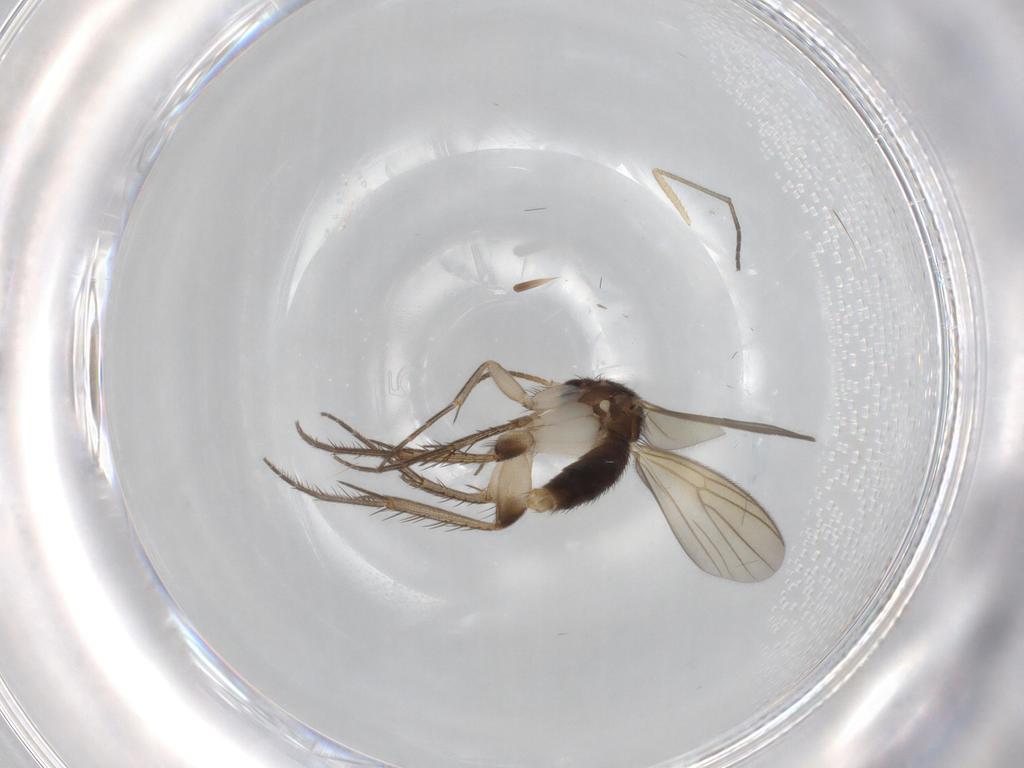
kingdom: Animalia
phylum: Arthropoda
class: Insecta
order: Diptera
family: Sciaridae
